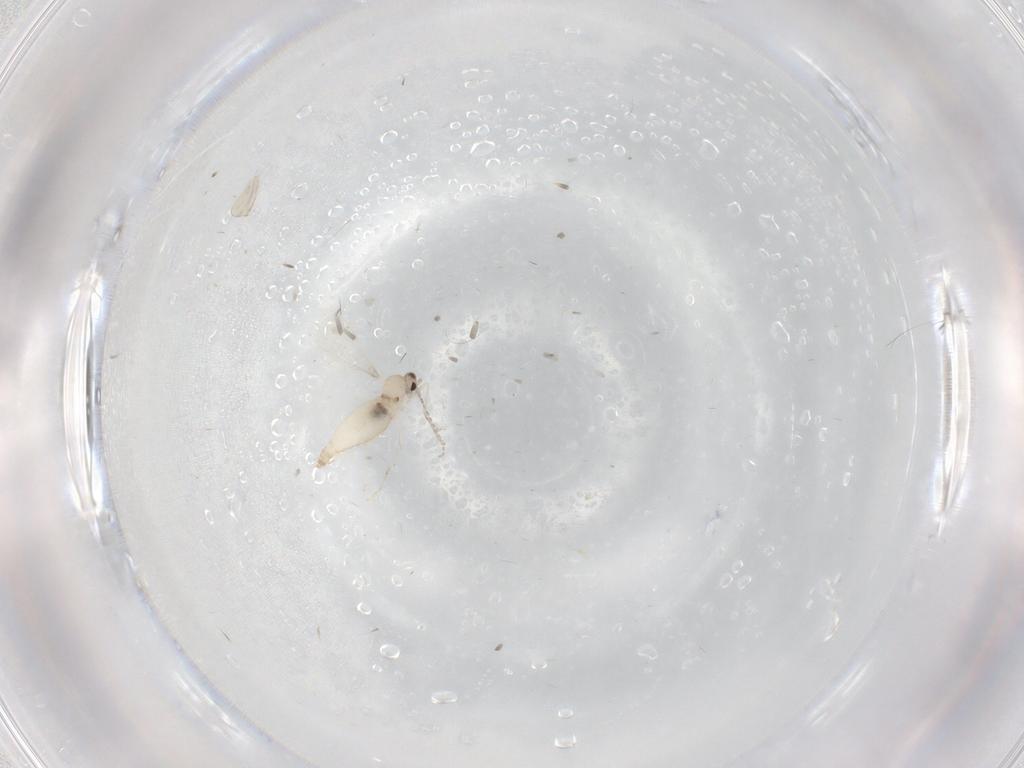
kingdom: Animalia
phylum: Arthropoda
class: Insecta
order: Diptera
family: Cecidomyiidae
